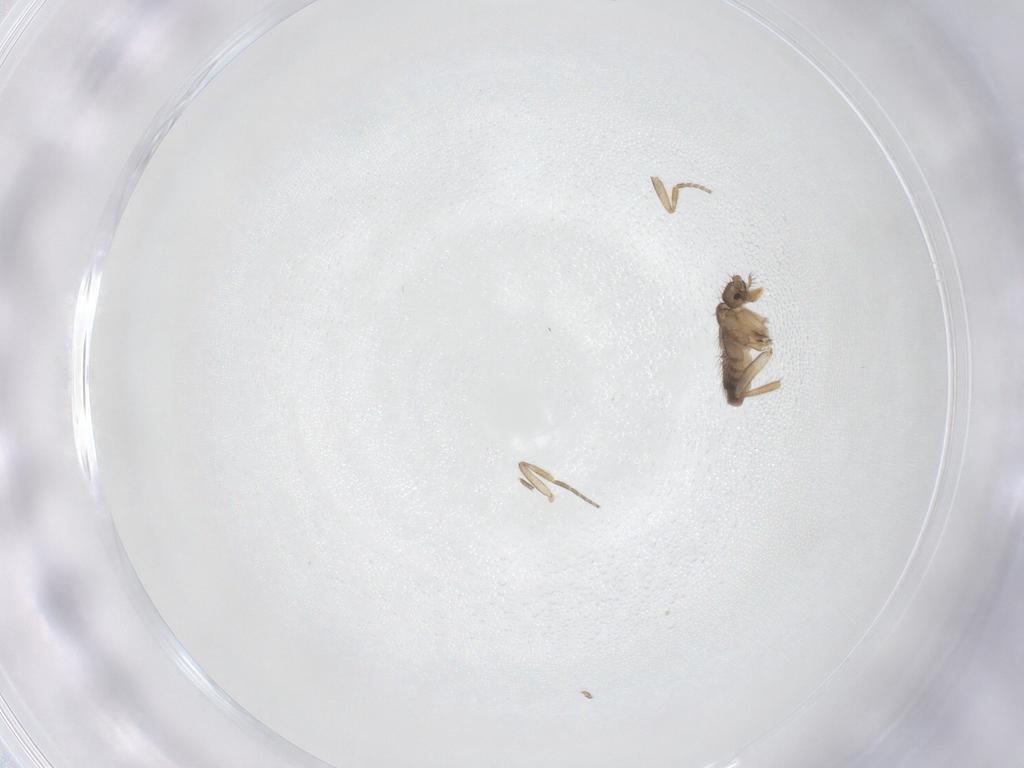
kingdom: Animalia
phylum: Arthropoda
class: Insecta
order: Diptera
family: Phoridae
